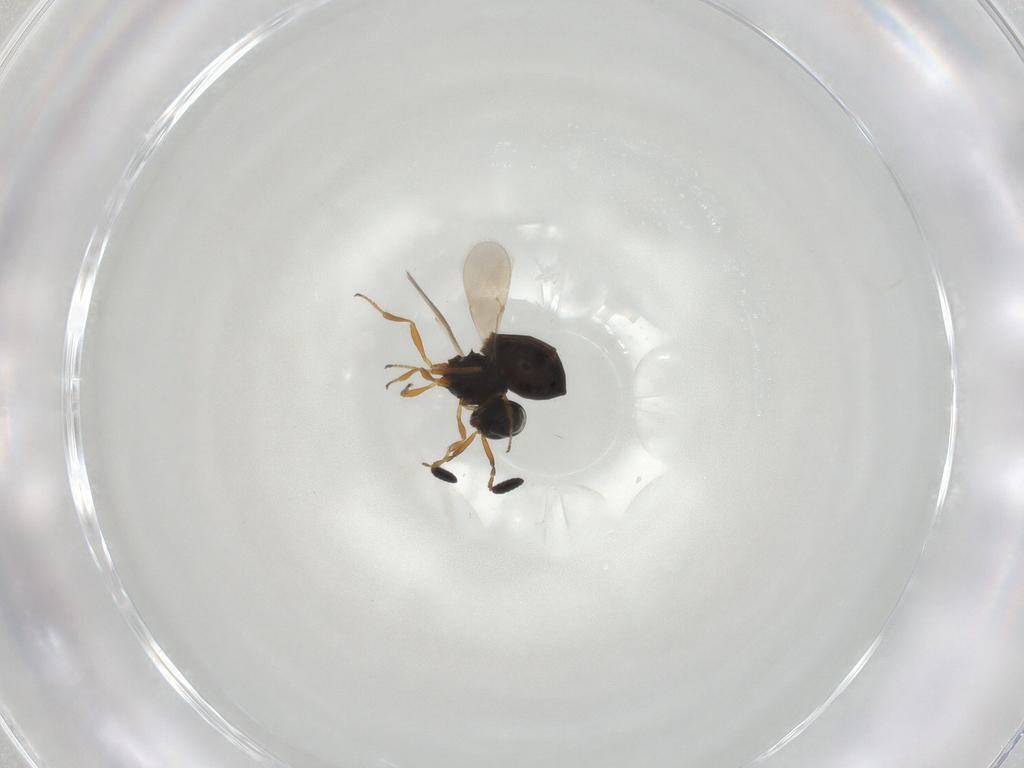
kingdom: Animalia
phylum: Arthropoda
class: Insecta
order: Hymenoptera
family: Scelionidae
